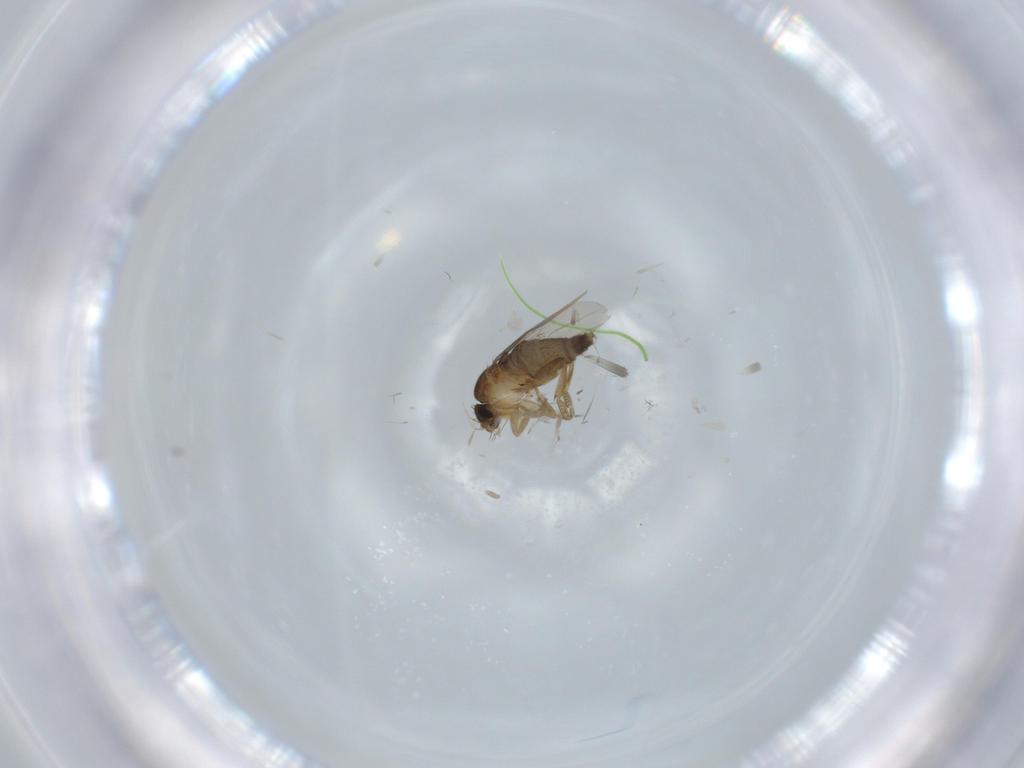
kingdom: Animalia
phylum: Arthropoda
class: Insecta
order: Diptera
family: Phoridae
